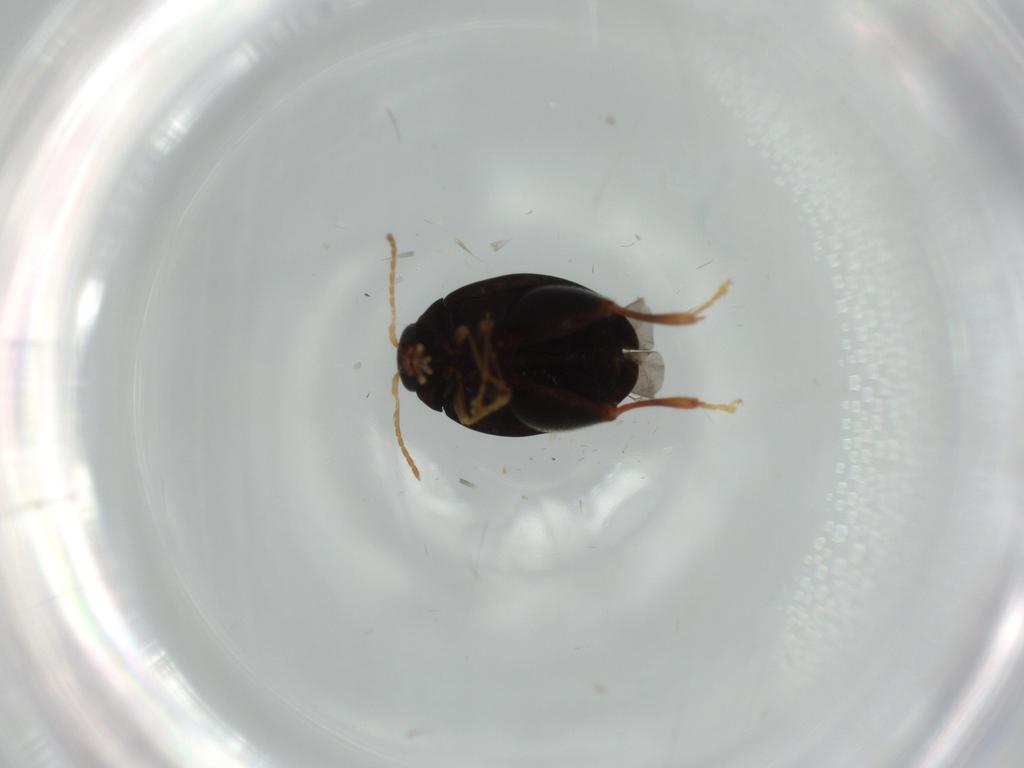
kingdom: Animalia
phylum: Arthropoda
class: Insecta
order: Coleoptera
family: Chrysomelidae
